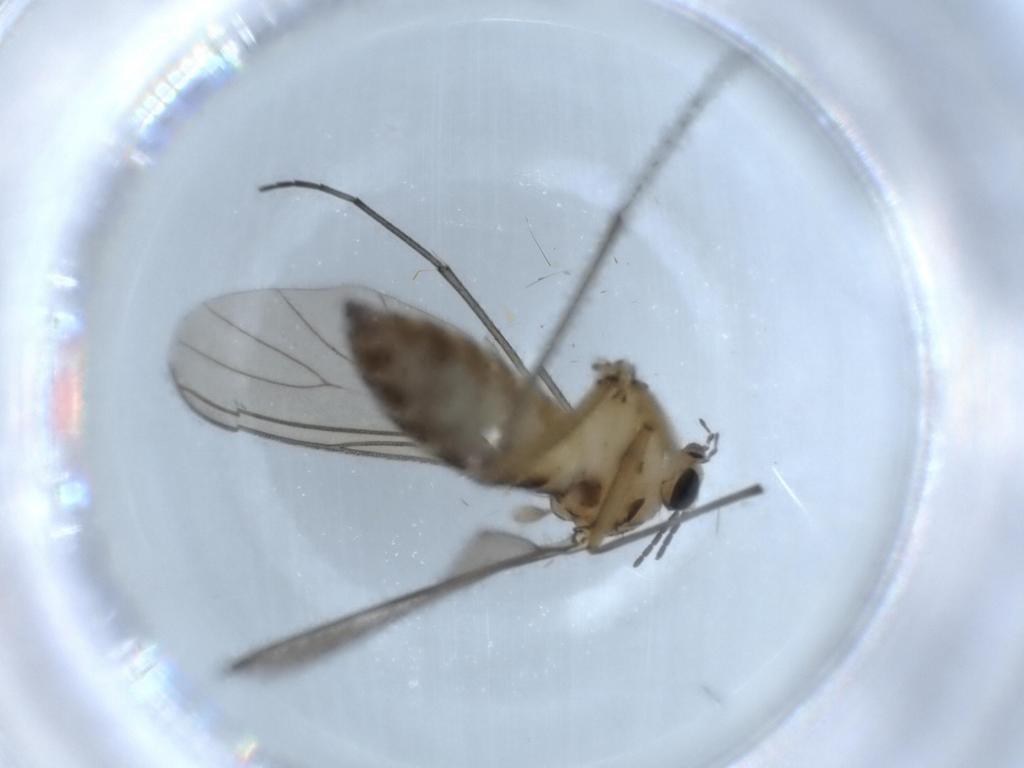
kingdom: Animalia
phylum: Arthropoda
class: Insecta
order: Diptera
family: Sciaridae
